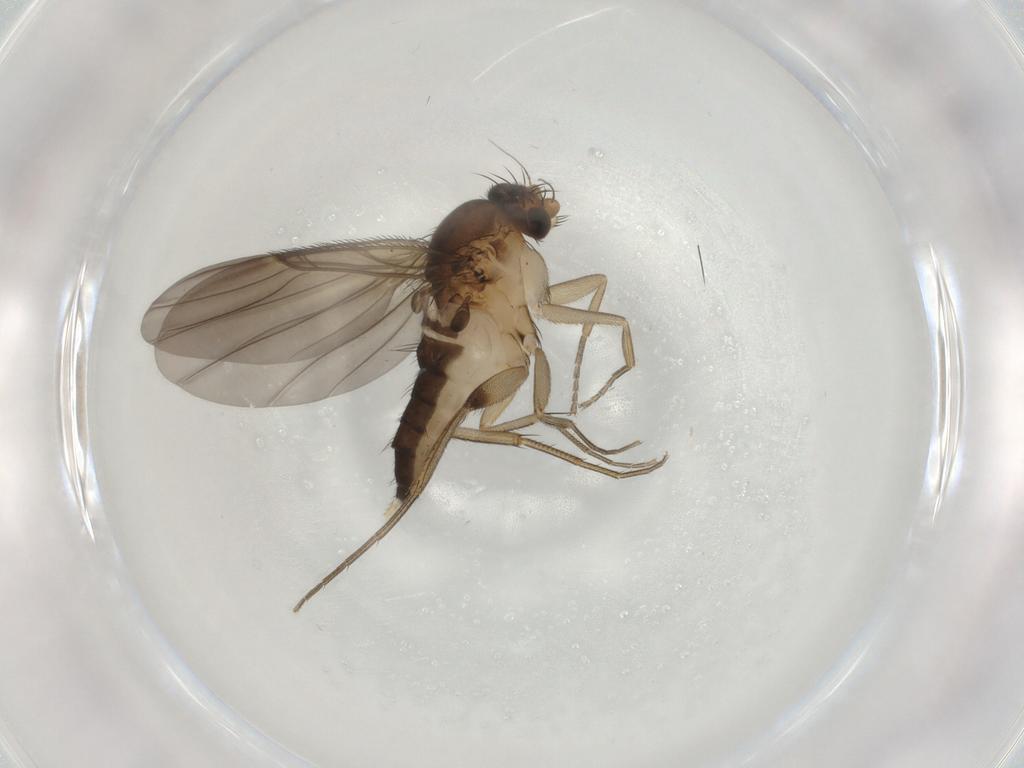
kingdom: Animalia
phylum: Arthropoda
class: Insecta
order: Diptera
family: Phoridae
